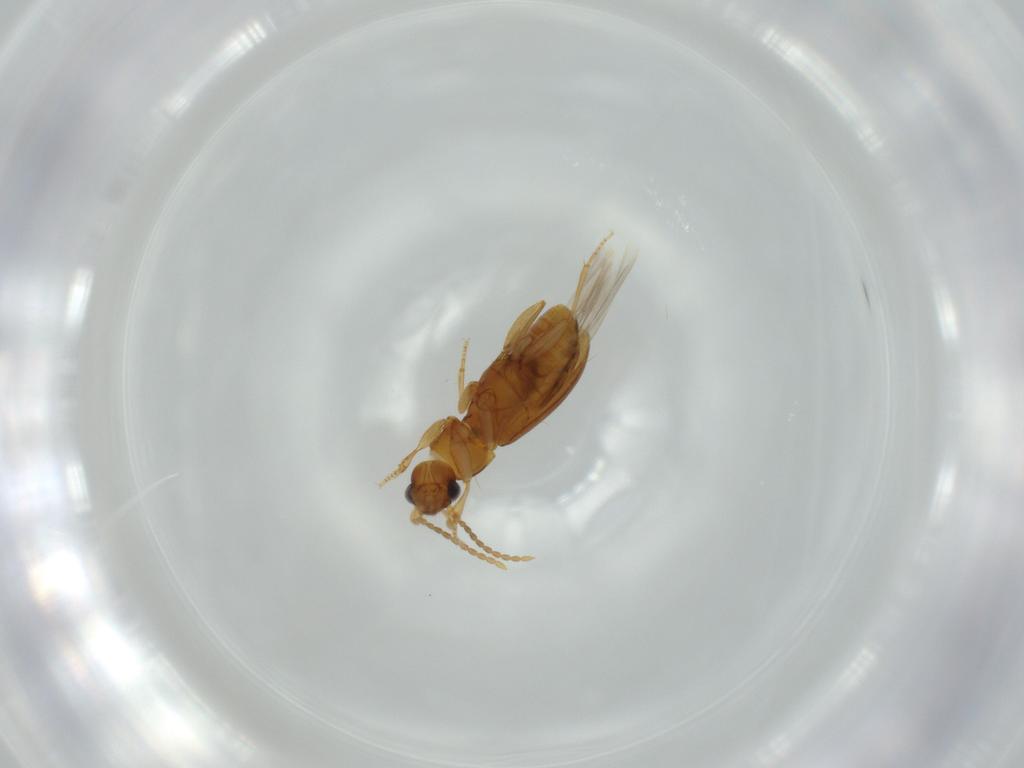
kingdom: Animalia
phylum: Arthropoda
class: Insecta
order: Coleoptera
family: Carabidae
